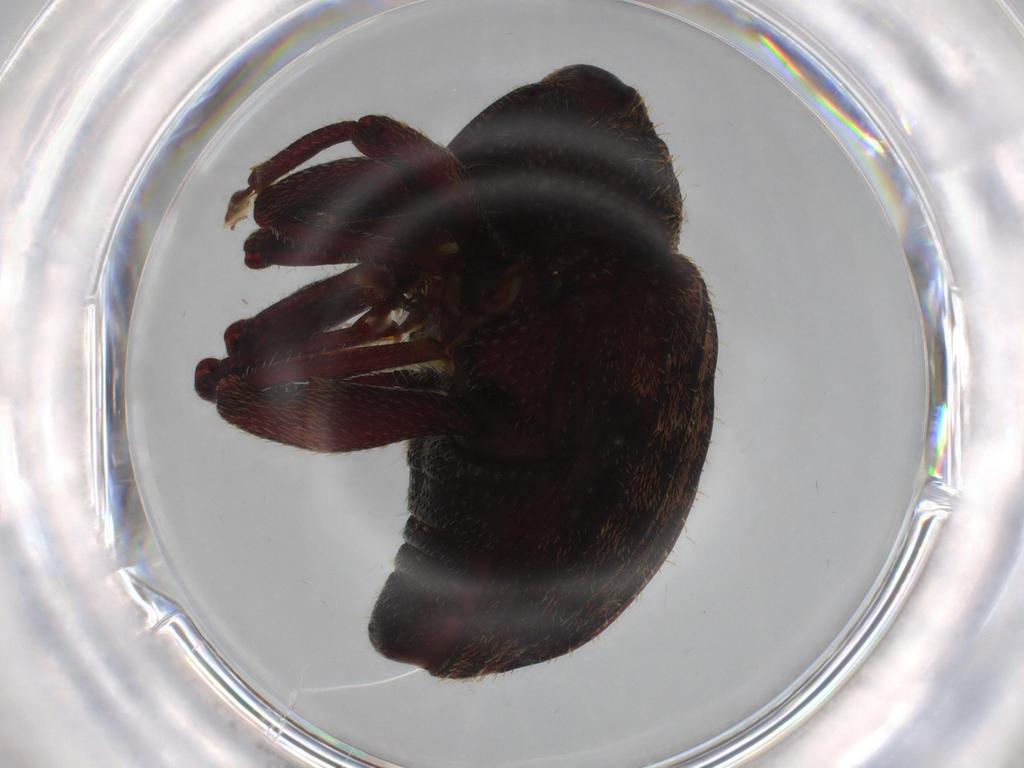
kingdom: Animalia
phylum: Arthropoda
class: Insecta
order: Coleoptera
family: Coccinellidae
